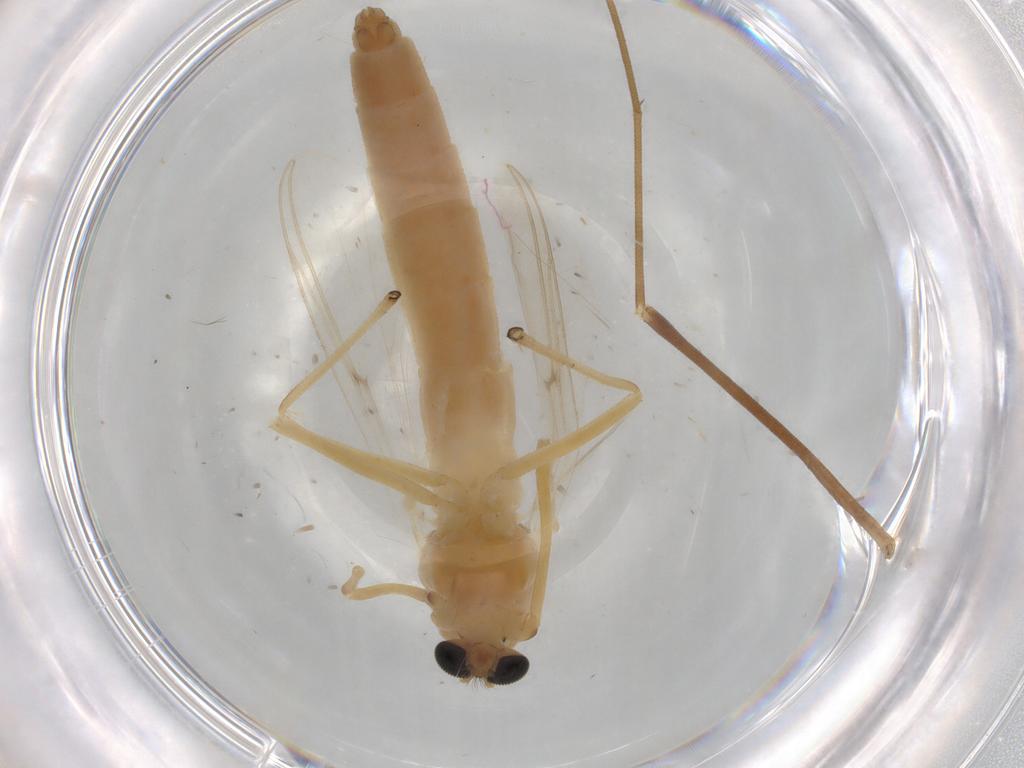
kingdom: Animalia
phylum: Arthropoda
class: Insecta
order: Diptera
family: Chloropidae
